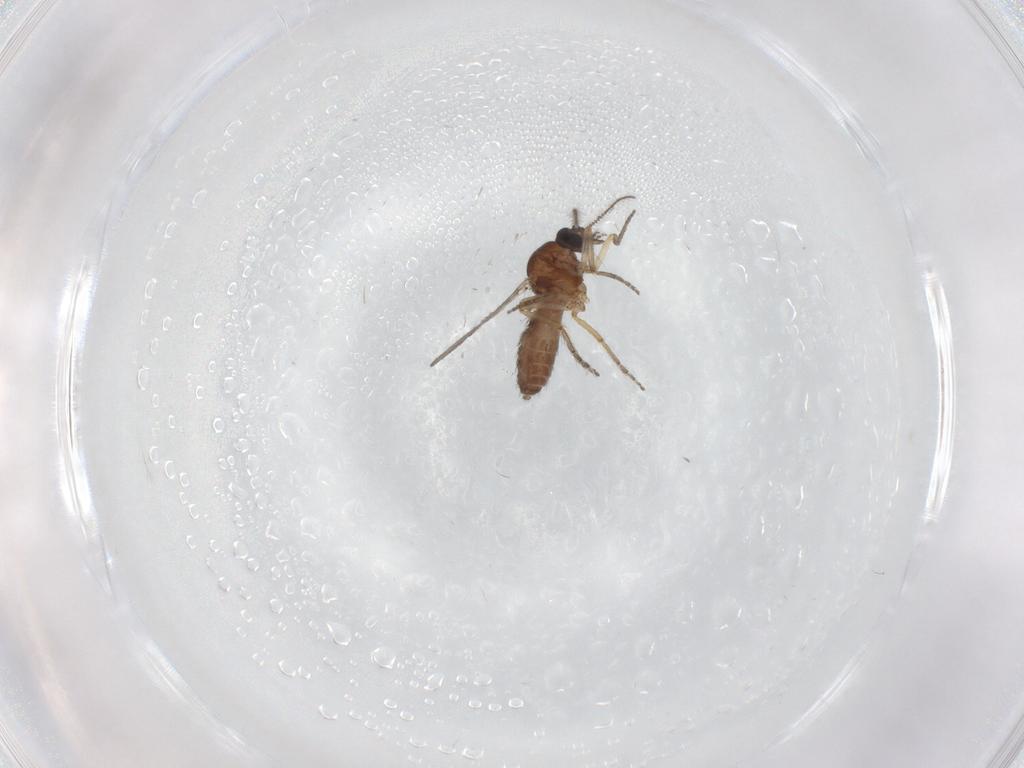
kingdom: Animalia
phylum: Arthropoda
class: Insecta
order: Diptera
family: Ceratopogonidae
